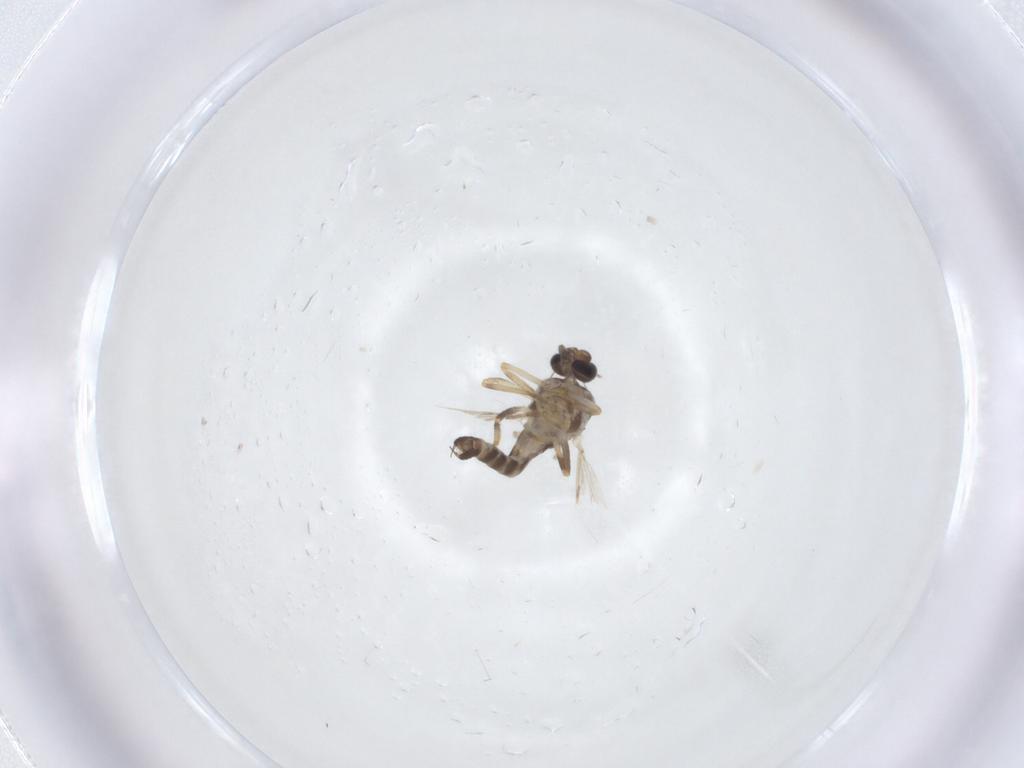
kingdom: Animalia
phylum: Arthropoda
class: Insecta
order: Diptera
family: Ceratopogonidae
